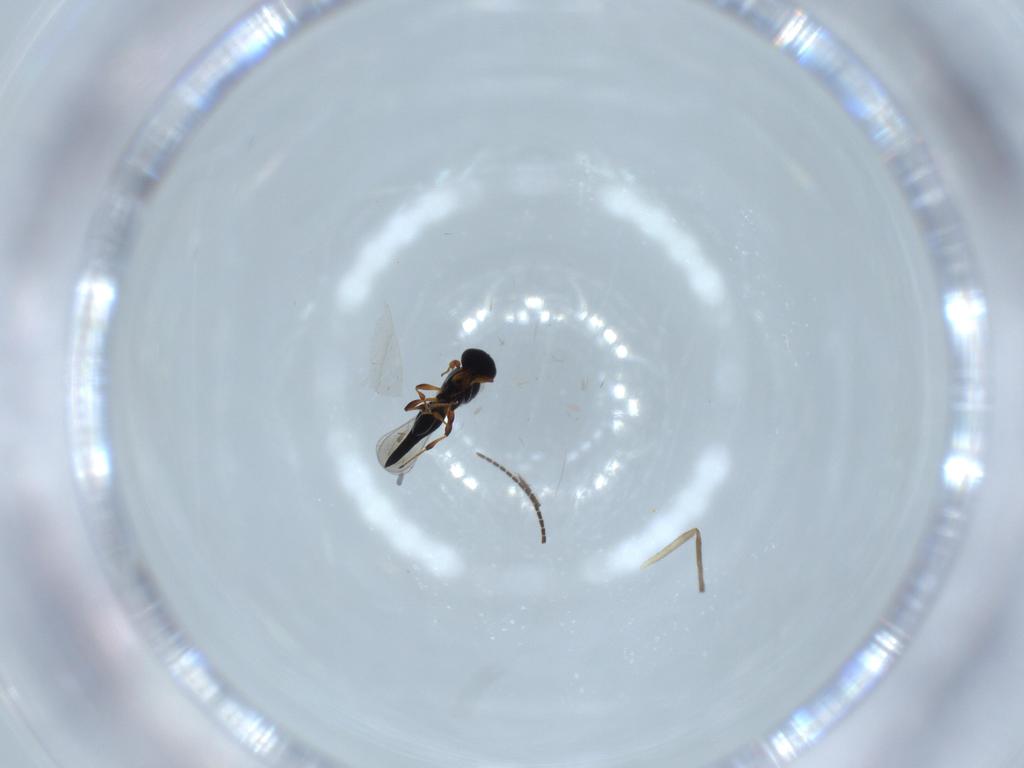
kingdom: Animalia
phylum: Arthropoda
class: Insecta
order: Hymenoptera
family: Platygastridae
